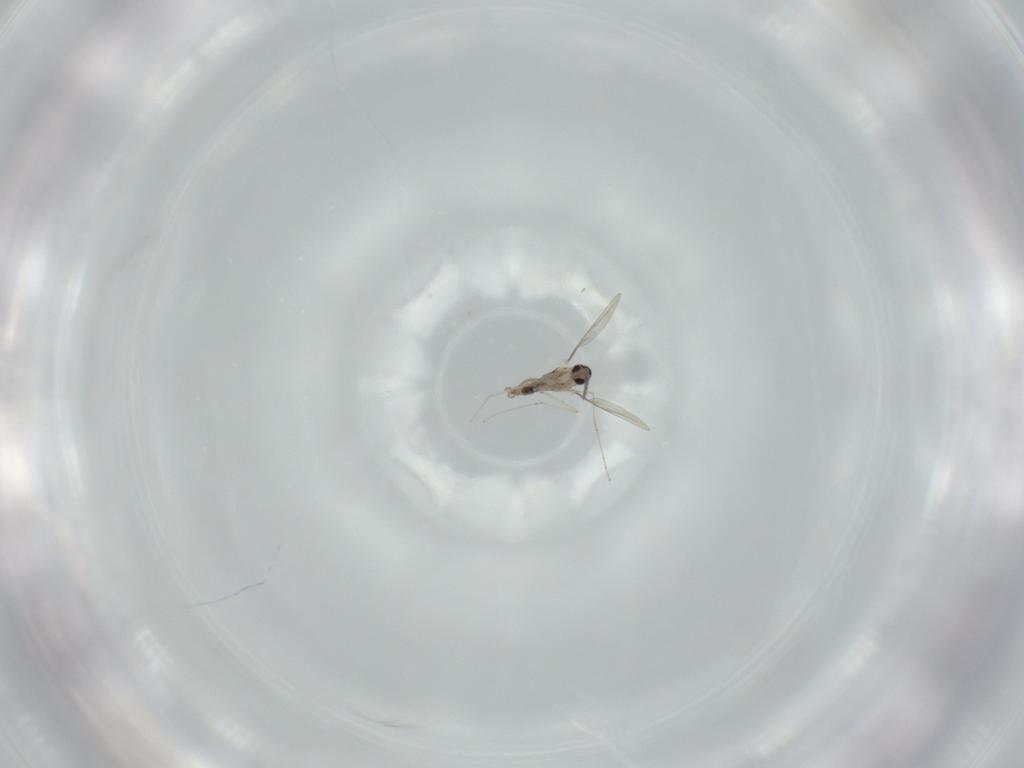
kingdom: Animalia
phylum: Arthropoda
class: Insecta
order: Diptera
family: Cecidomyiidae
